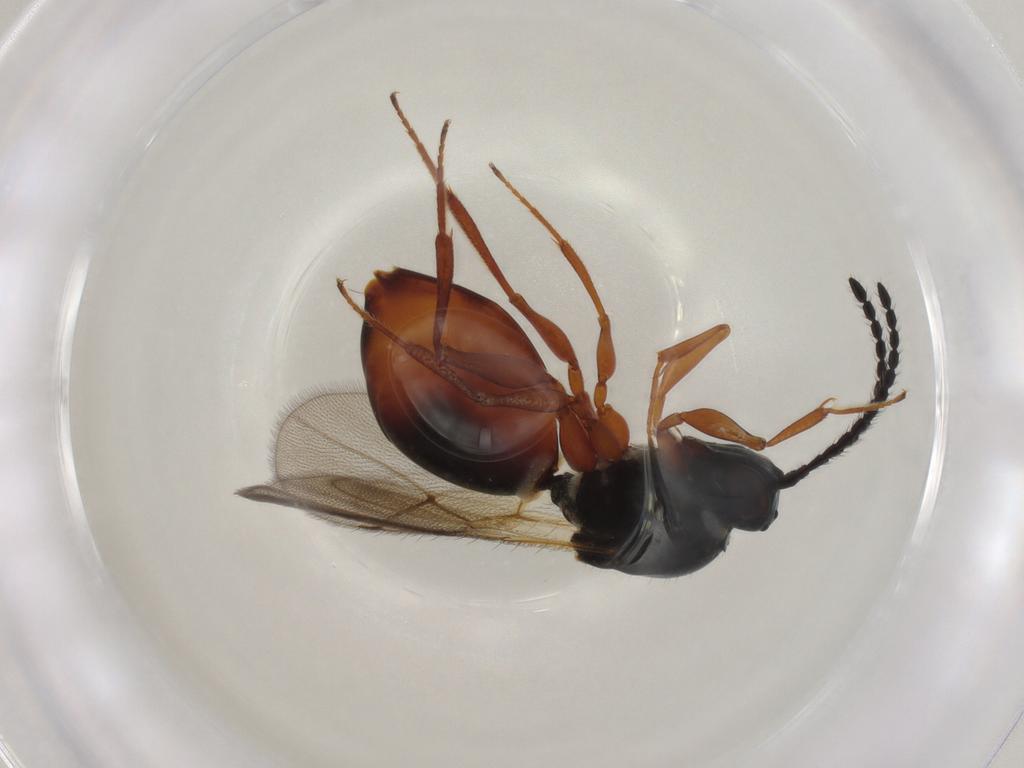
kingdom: Animalia
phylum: Arthropoda
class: Insecta
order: Hymenoptera
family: Figitidae
